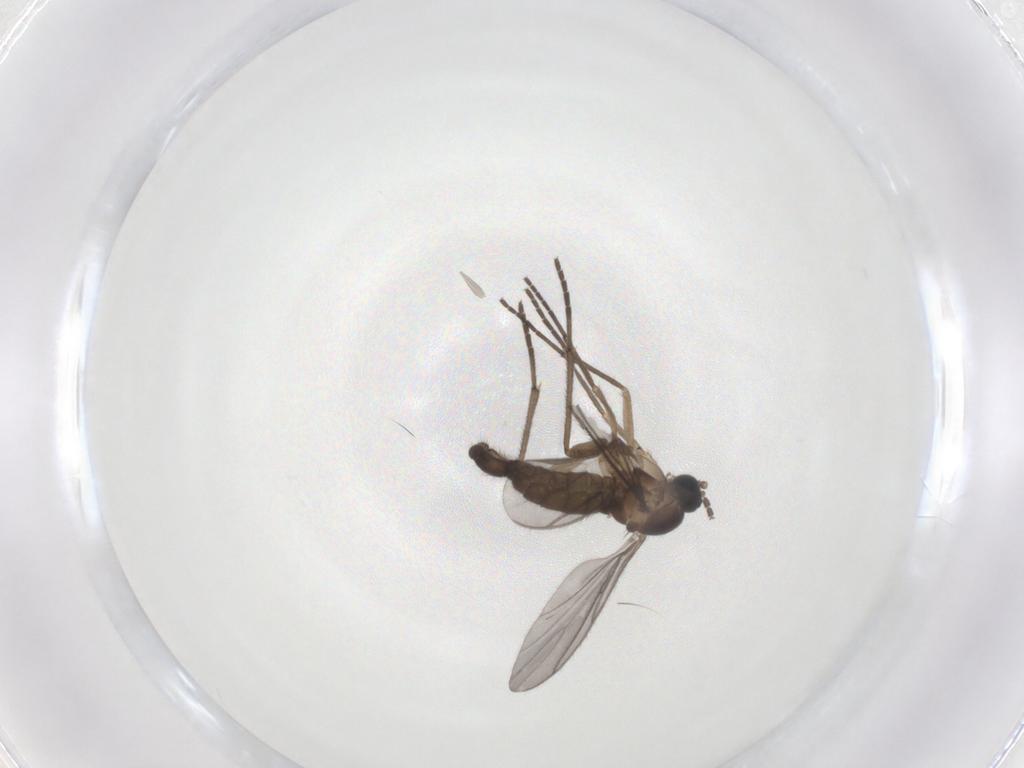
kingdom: Animalia
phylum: Arthropoda
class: Insecta
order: Diptera
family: Sciaridae
